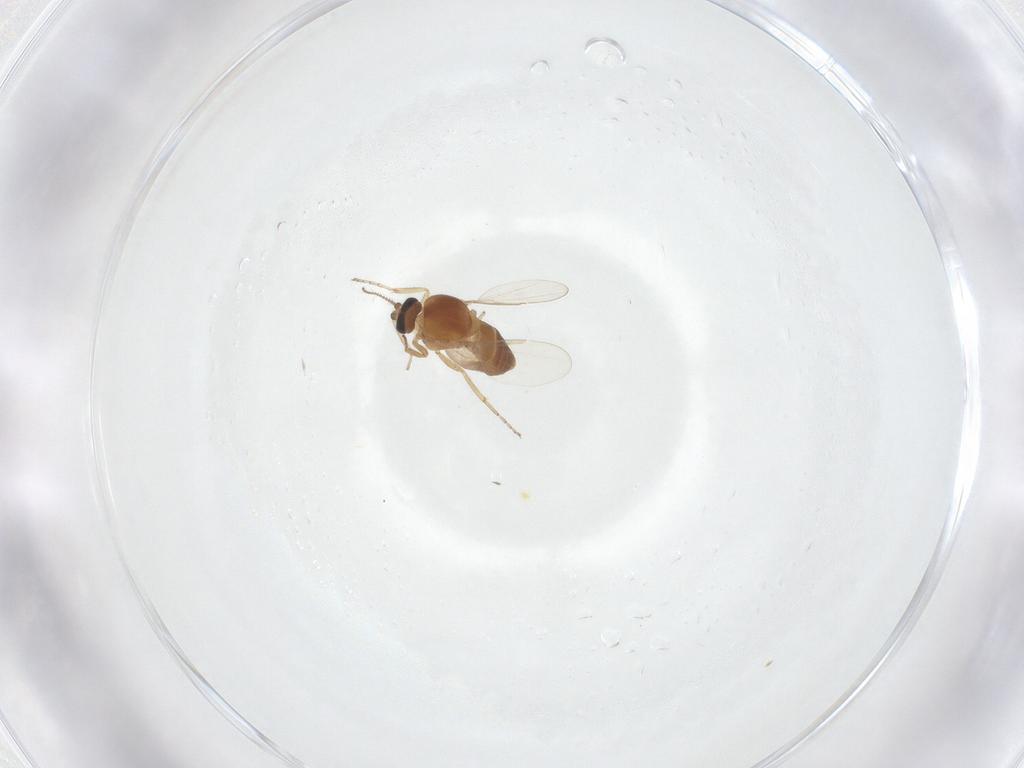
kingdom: Animalia
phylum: Arthropoda
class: Insecta
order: Diptera
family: Ceratopogonidae
